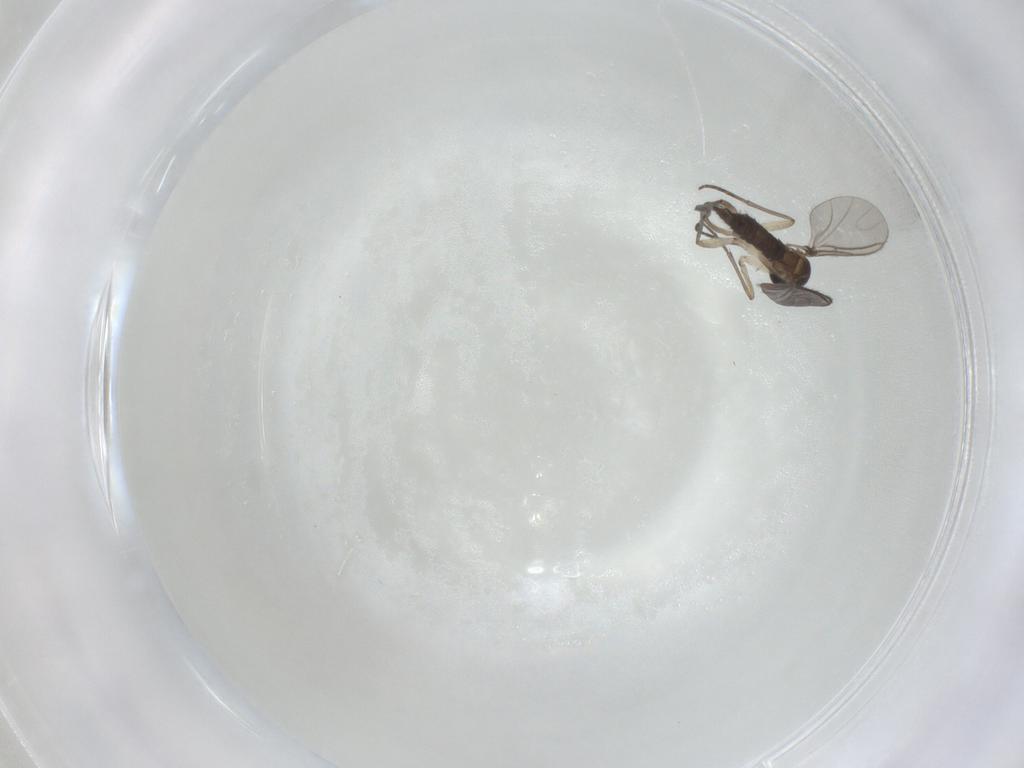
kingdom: Animalia
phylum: Arthropoda
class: Insecta
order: Diptera
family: Sciaridae
